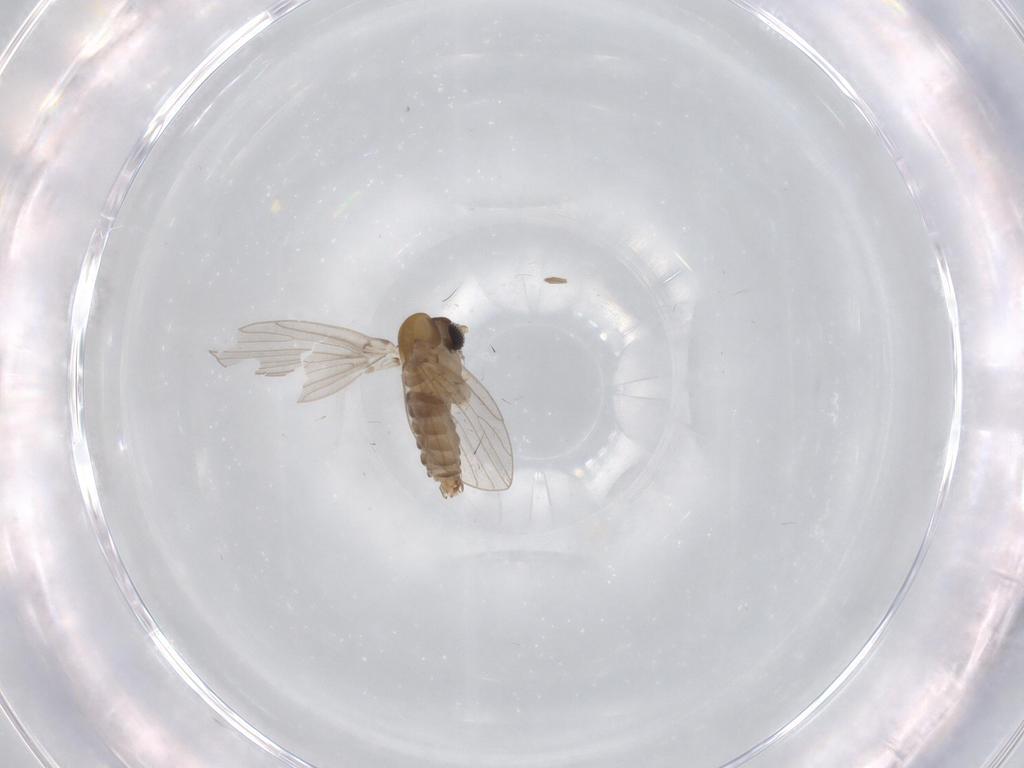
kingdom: Animalia
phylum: Arthropoda
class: Insecta
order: Diptera
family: Psychodidae
